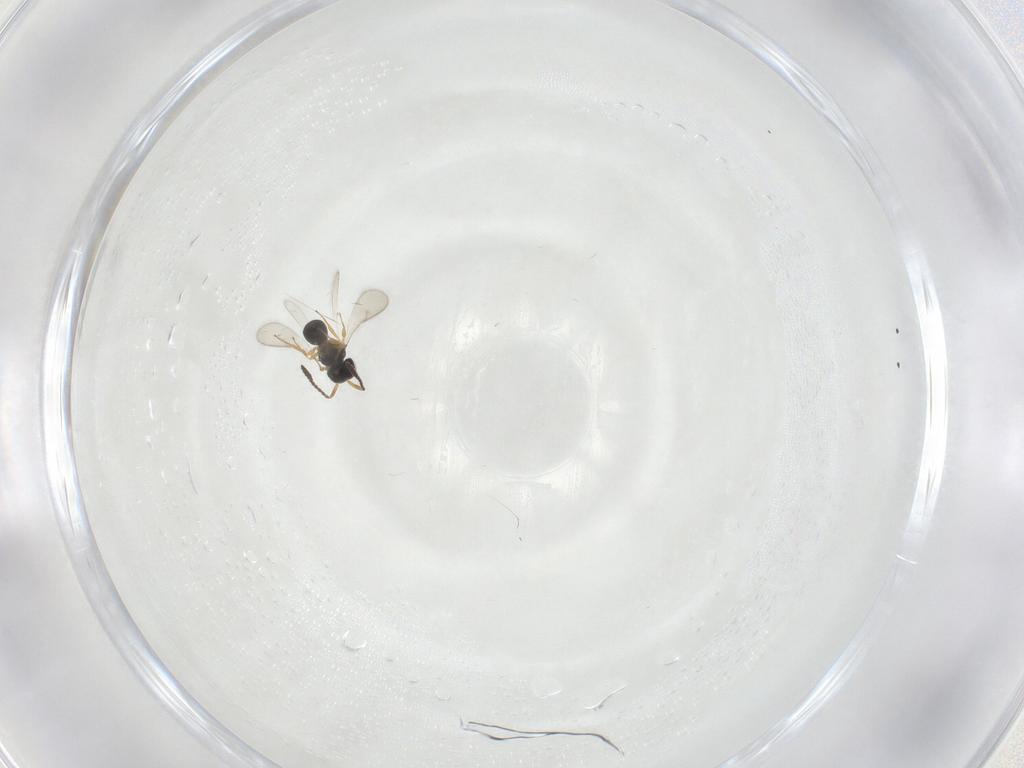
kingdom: Animalia
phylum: Arthropoda
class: Insecta
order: Hymenoptera
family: Scelionidae
